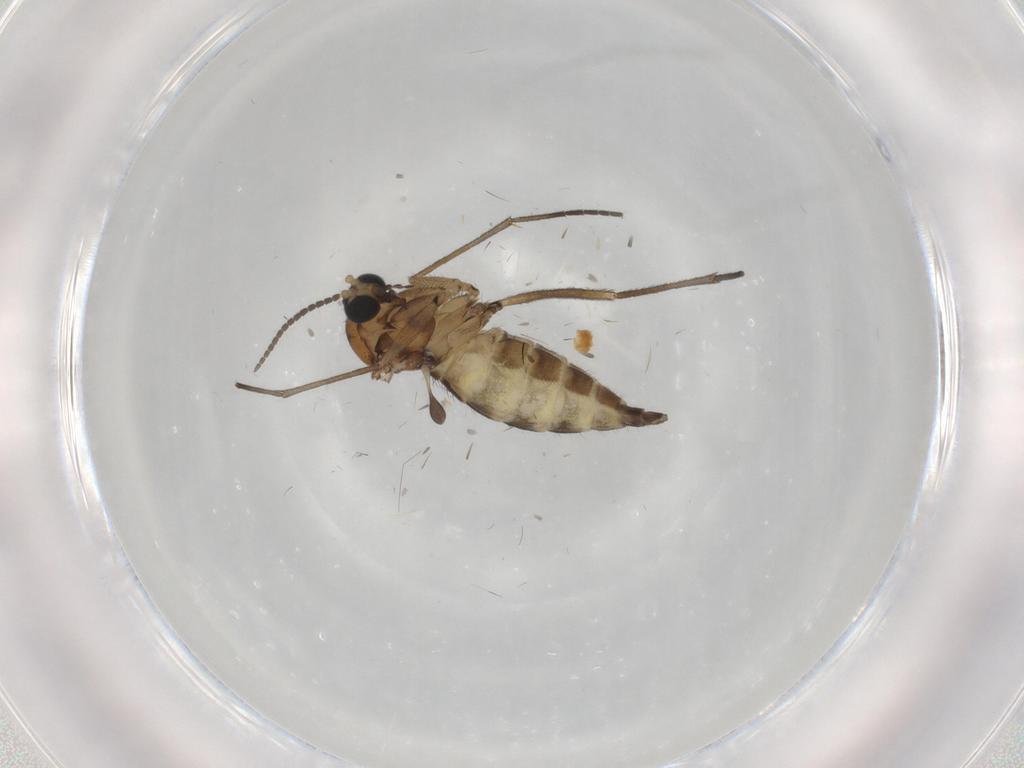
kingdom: Animalia
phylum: Arthropoda
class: Insecta
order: Diptera
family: Sciaridae
